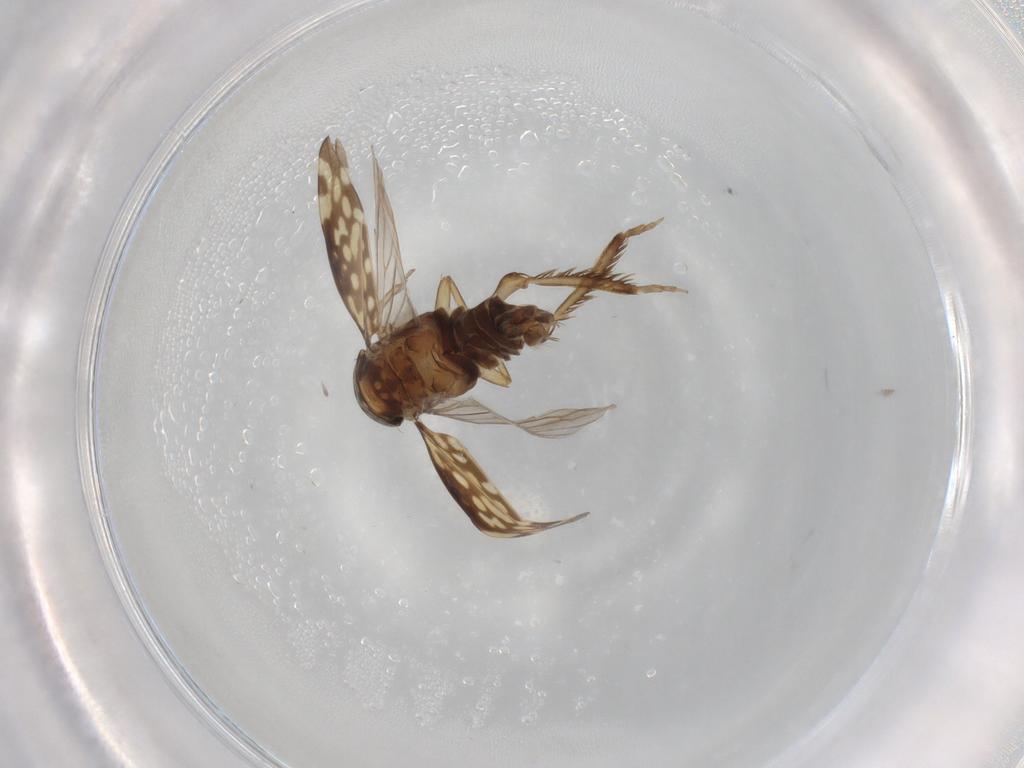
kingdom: Animalia
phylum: Arthropoda
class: Insecta
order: Hemiptera
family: Cicadellidae
